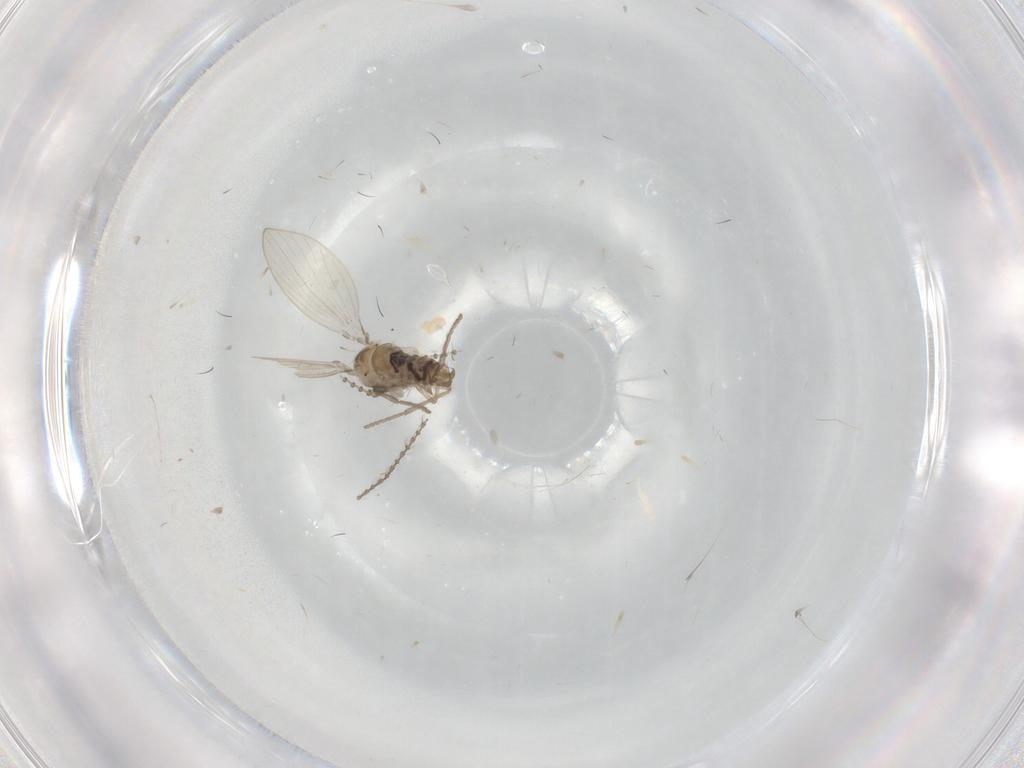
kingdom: Animalia
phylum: Arthropoda
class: Insecta
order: Diptera
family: Psychodidae
